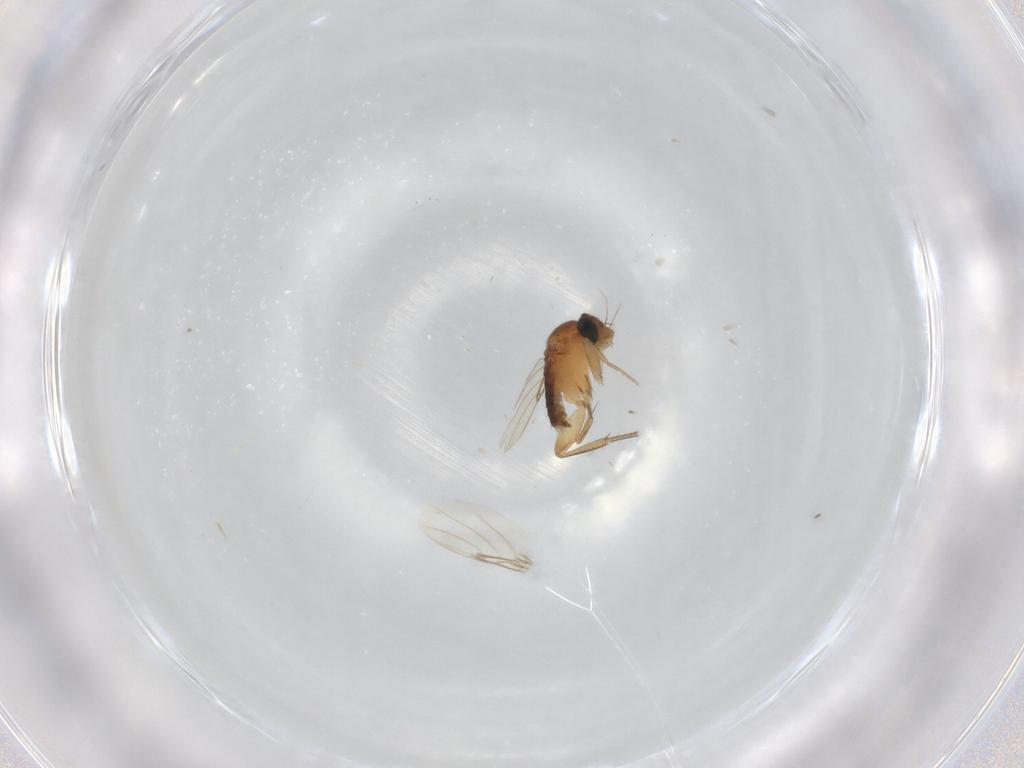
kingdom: Animalia
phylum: Arthropoda
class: Insecta
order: Diptera
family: Phoridae
